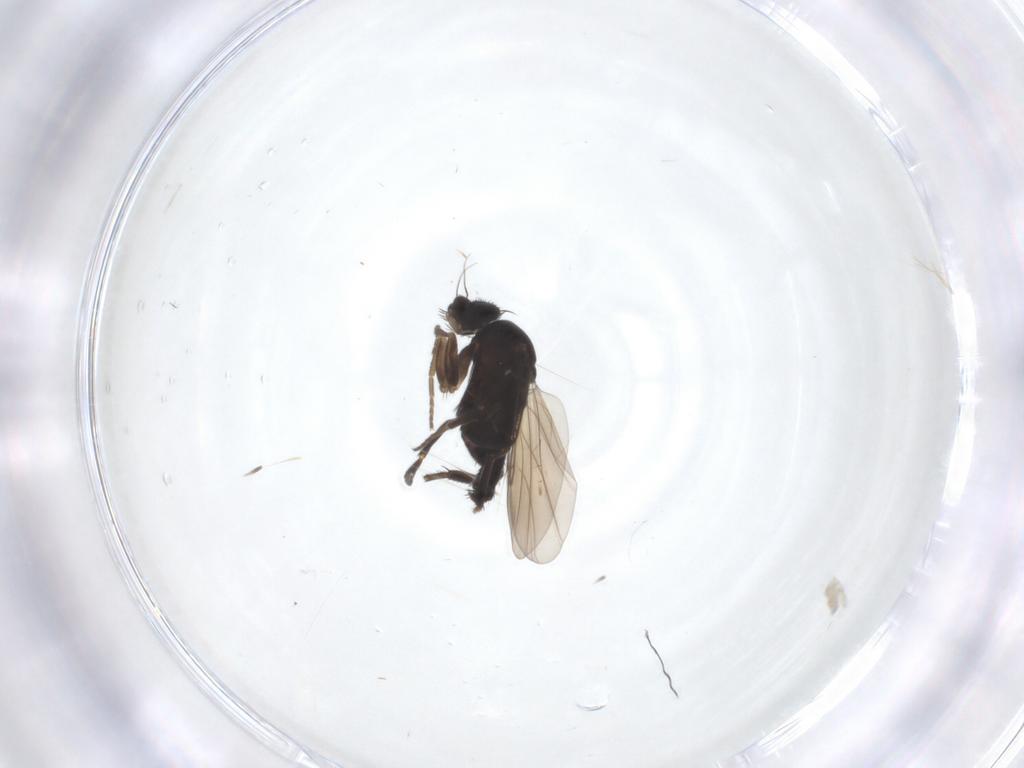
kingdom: Animalia
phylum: Arthropoda
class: Insecta
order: Diptera
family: Phoridae
